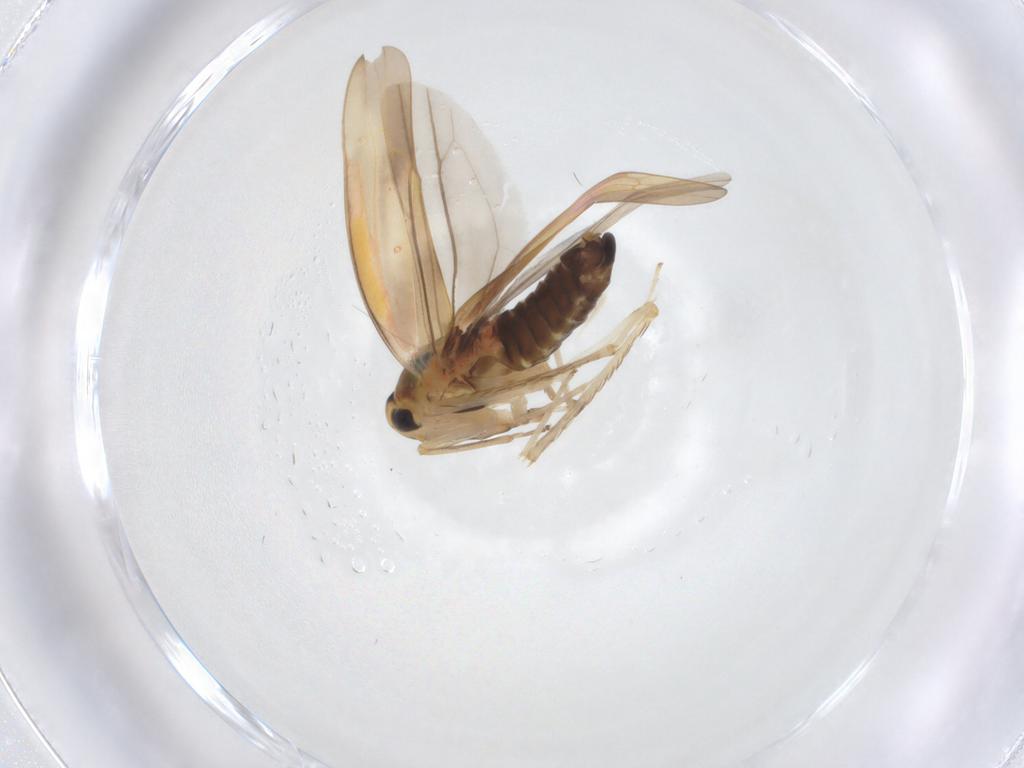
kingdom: Animalia
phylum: Arthropoda
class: Insecta
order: Hemiptera
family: Cicadellidae
